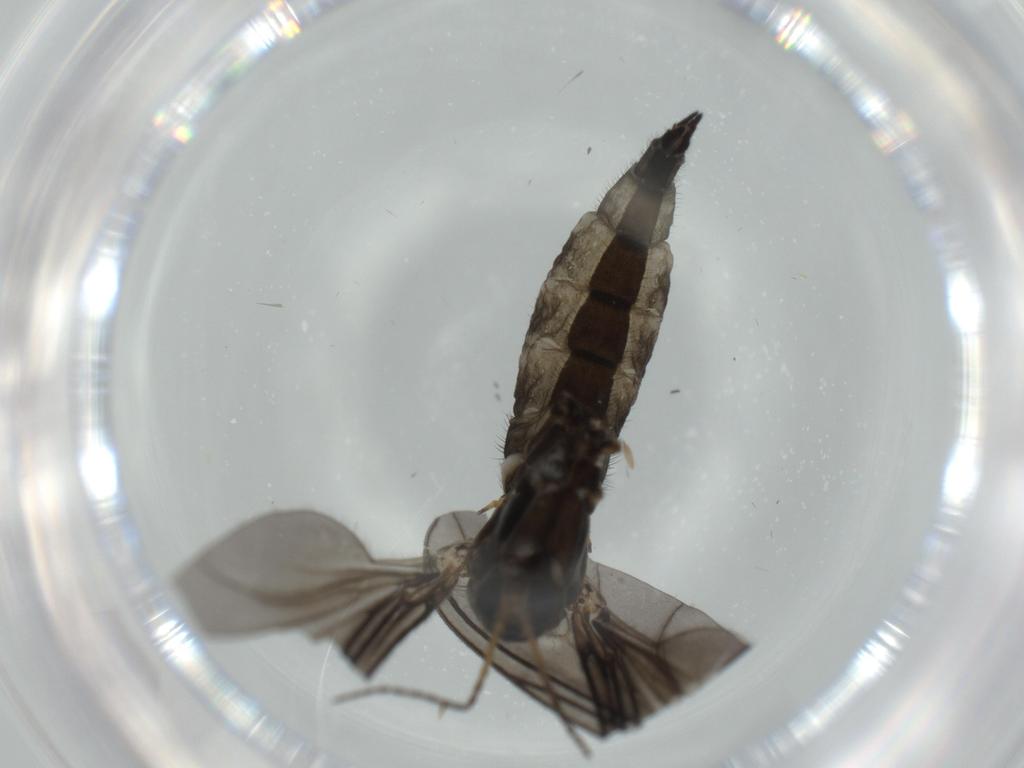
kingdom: Animalia
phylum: Arthropoda
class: Insecta
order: Diptera
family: Sciaridae
